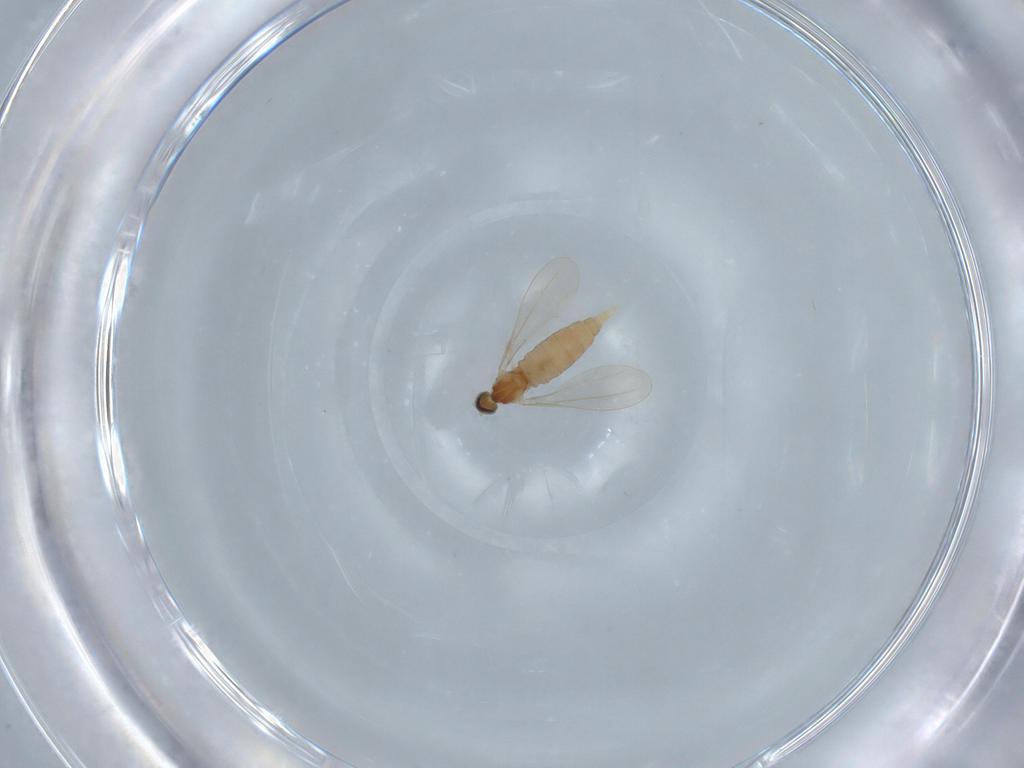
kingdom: Animalia
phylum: Arthropoda
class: Insecta
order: Diptera
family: Cecidomyiidae
